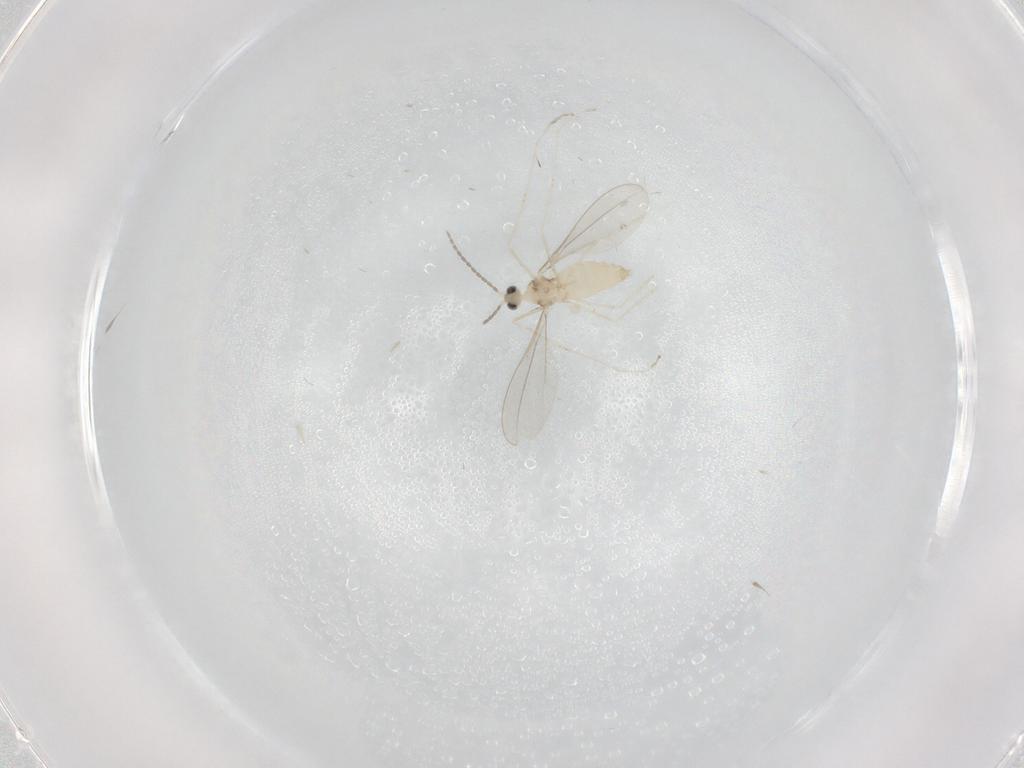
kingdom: Animalia
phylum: Arthropoda
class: Insecta
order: Diptera
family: Cecidomyiidae
